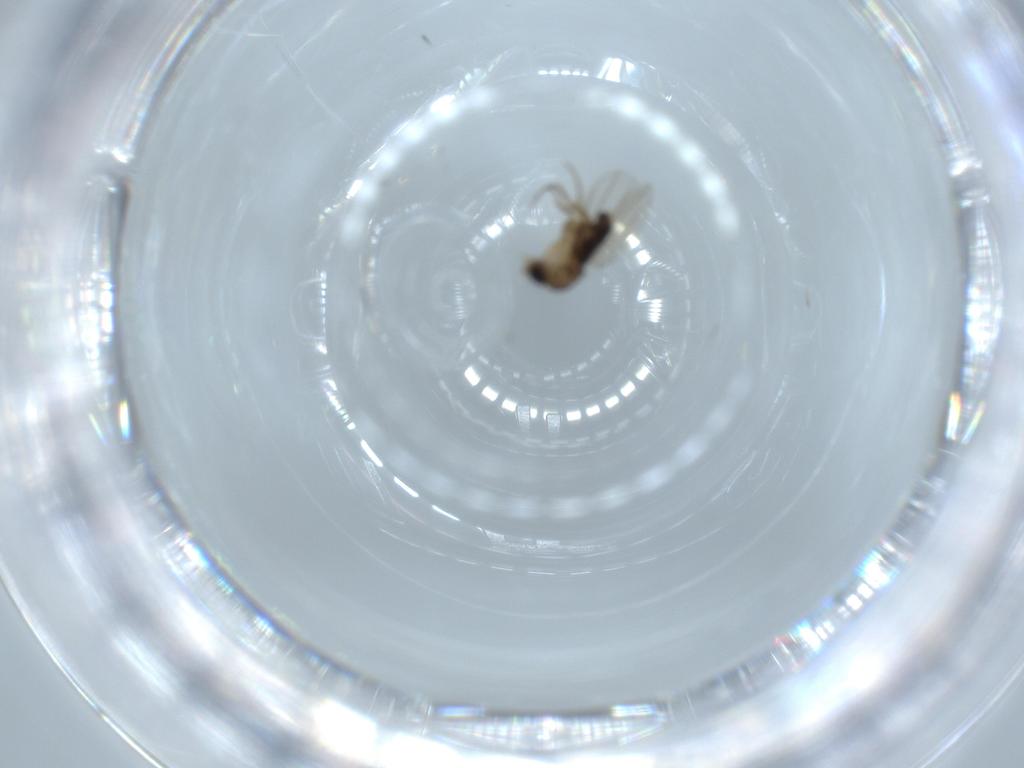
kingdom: Animalia
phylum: Arthropoda
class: Insecta
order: Diptera
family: Phoridae
